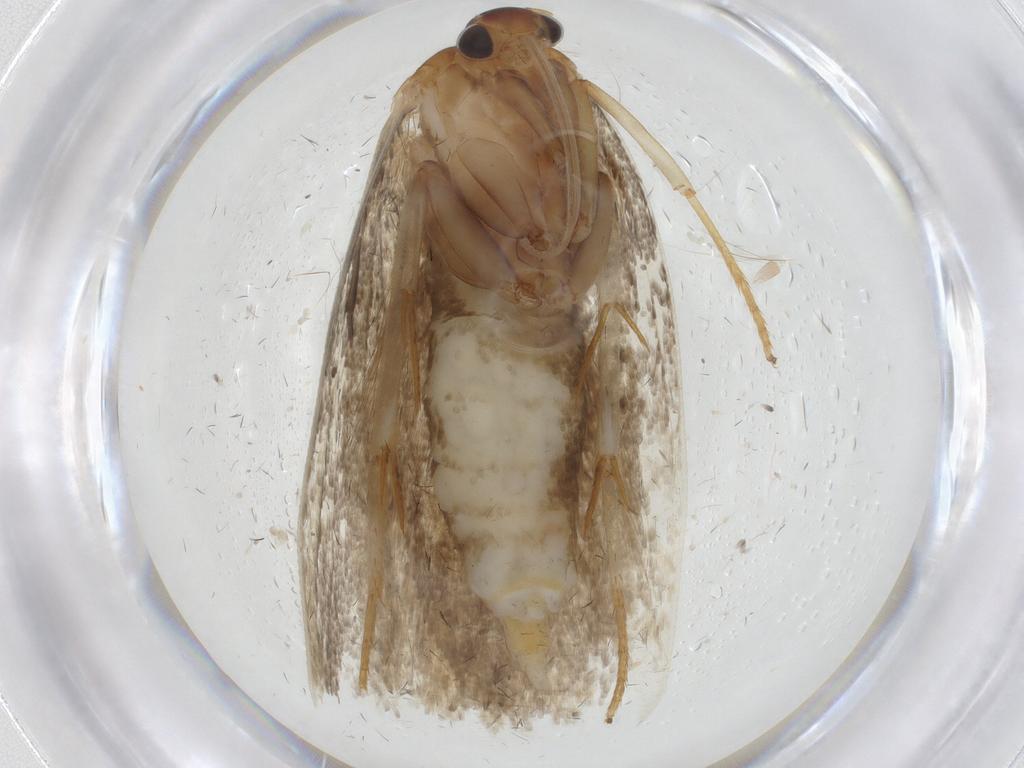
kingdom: Animalia
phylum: Arthropoda
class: Insecta
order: Lepidoptera
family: Oecophoridae
